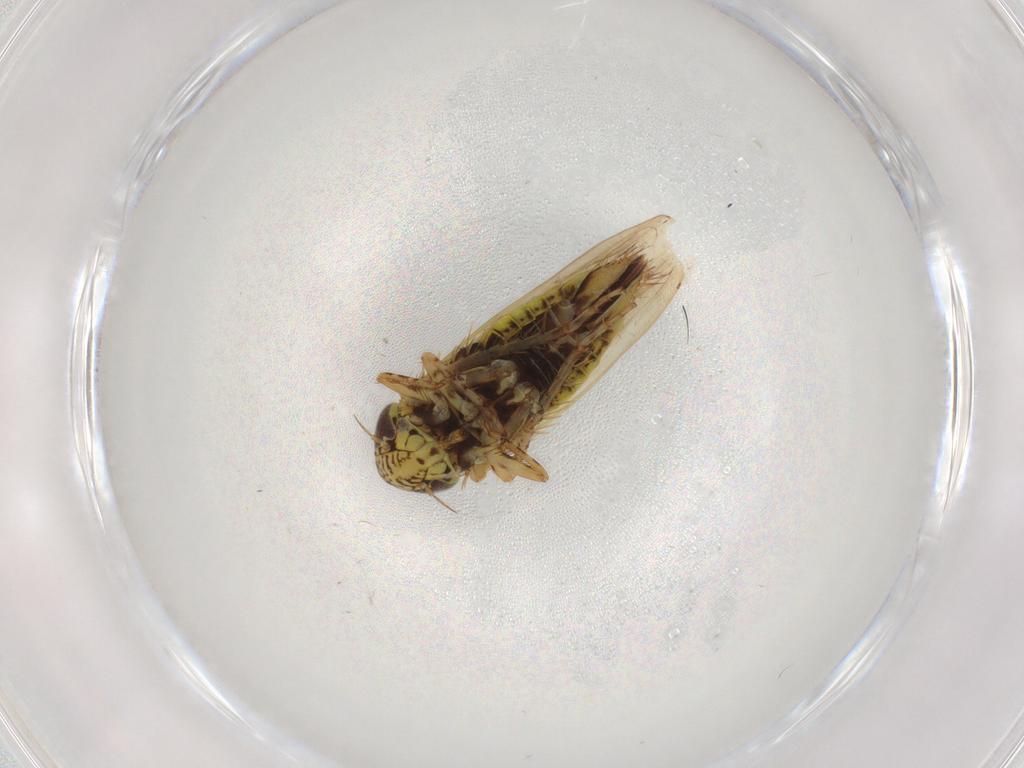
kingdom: Animalia
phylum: Arthropoda
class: Insecta
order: Hemiptera
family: Cicadellidae
